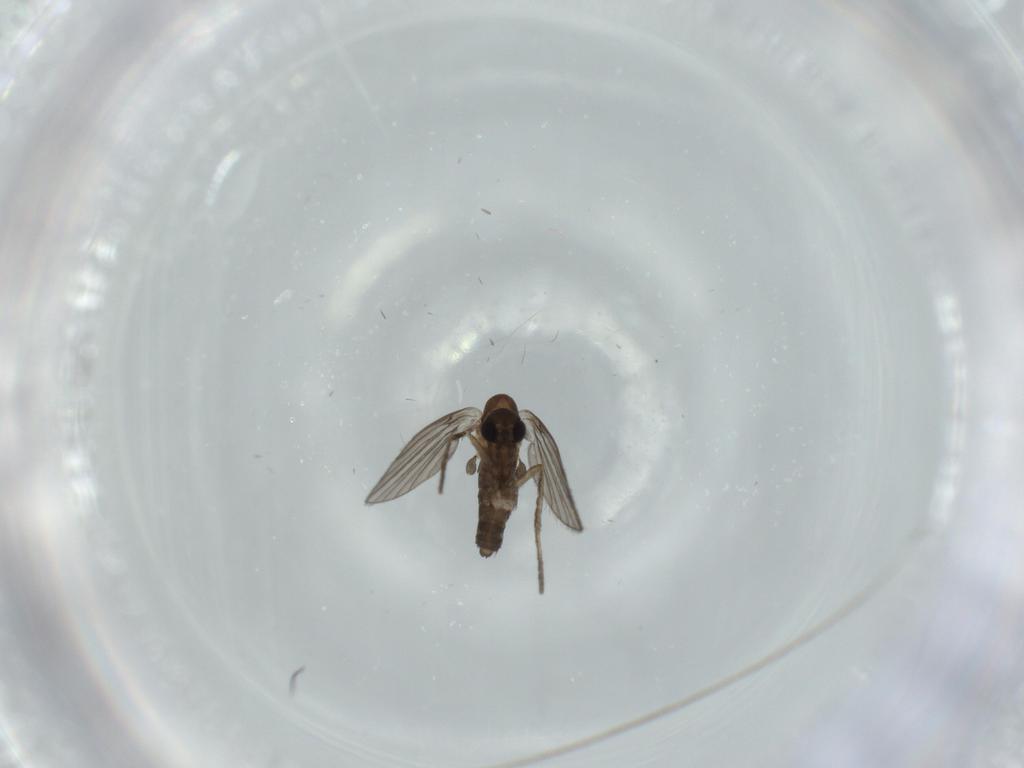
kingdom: Animalia
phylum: Arthropoda
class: Insecta
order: Diptera
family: Psychodidae
